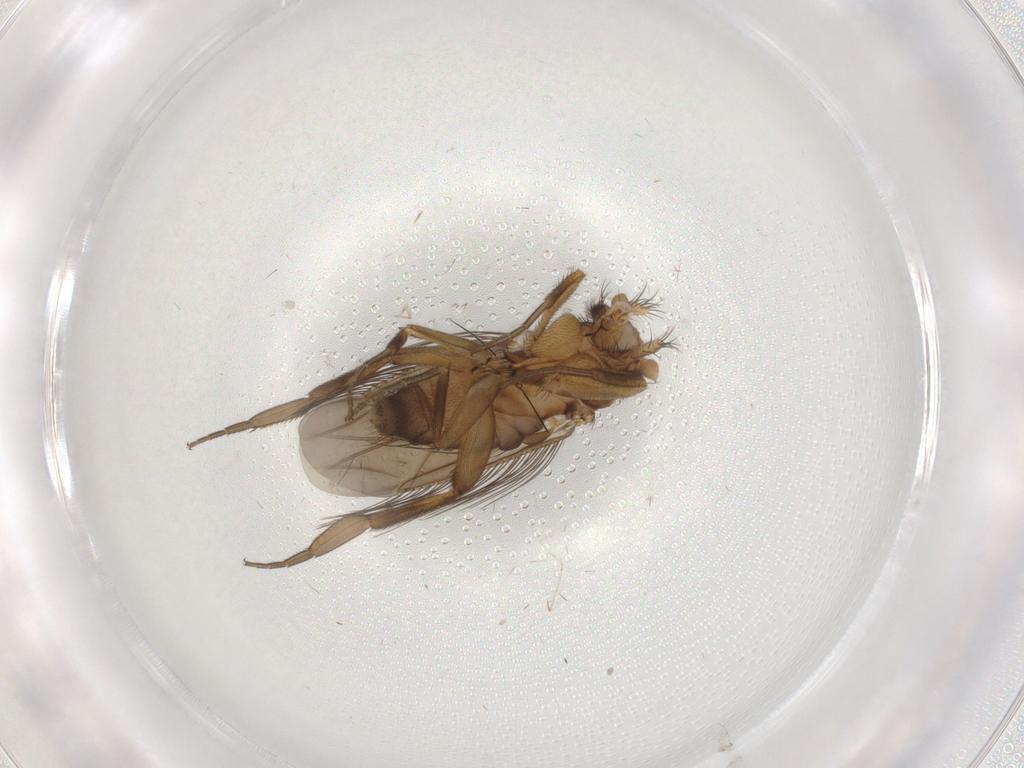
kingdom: Animalia
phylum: Arthropoda
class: Insecta
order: Diptera
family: Phoridae
